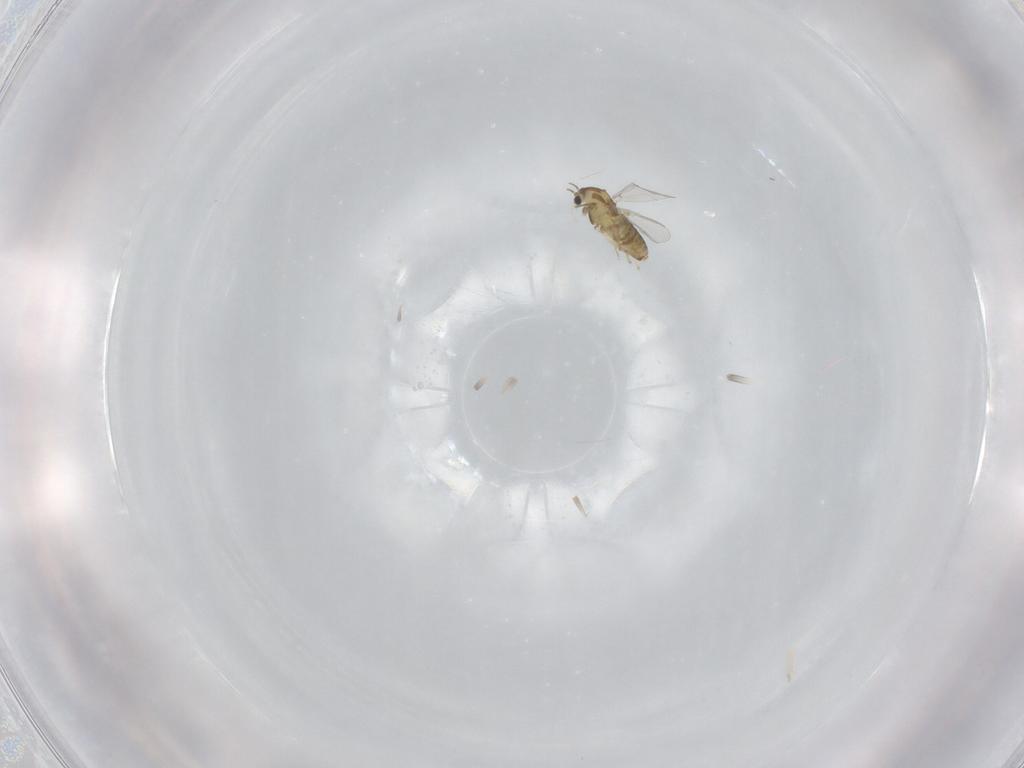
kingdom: Animalia
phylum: Arthropoda
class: Insecta
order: Diptera
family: Chironomidae
